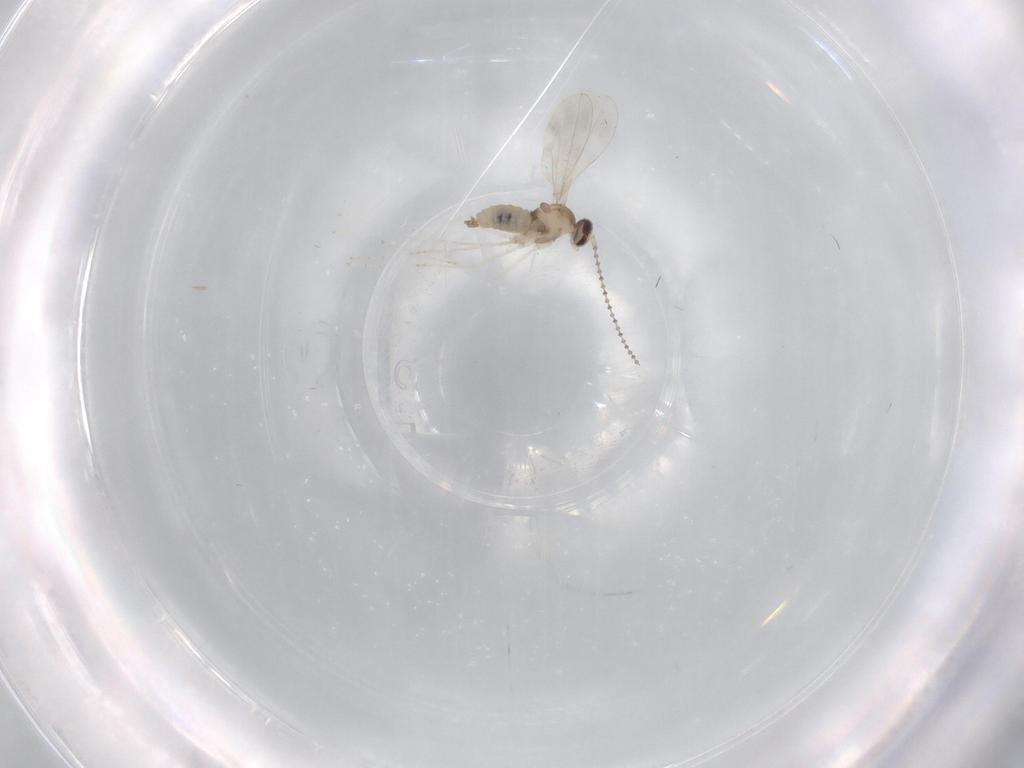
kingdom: Animalia
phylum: Arthropoda
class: Insecta
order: Diptera
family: Cecidomyiidae
